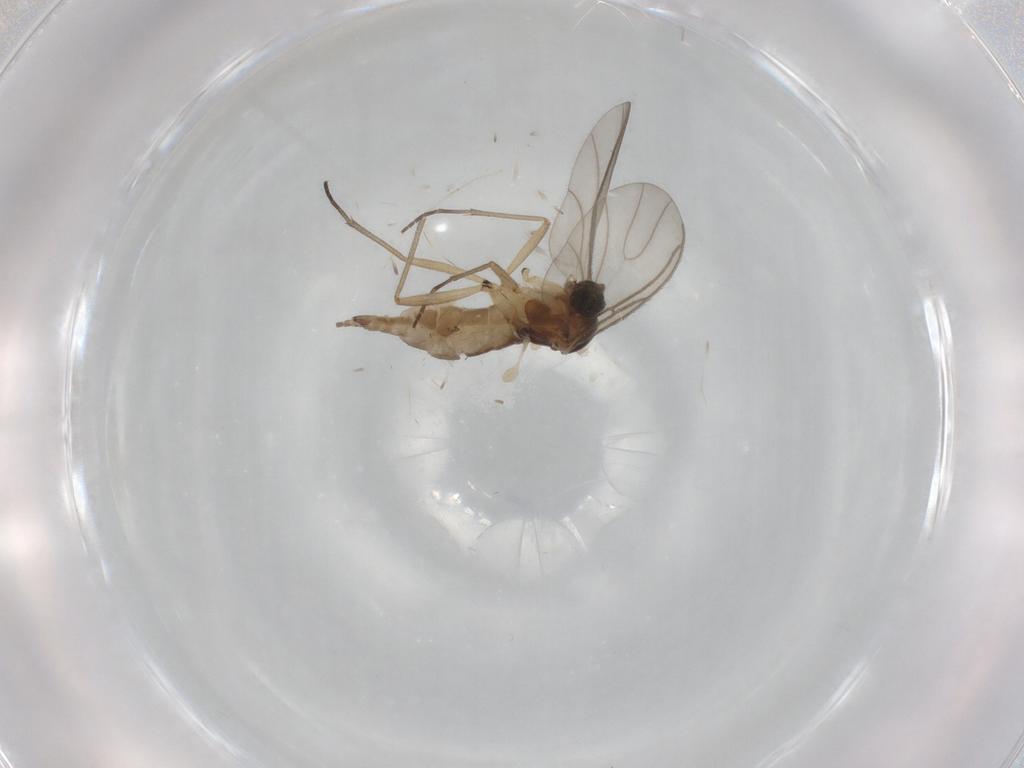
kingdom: Animalia
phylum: Arthropoda
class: Insecta
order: Diptera
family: Sciaridae
